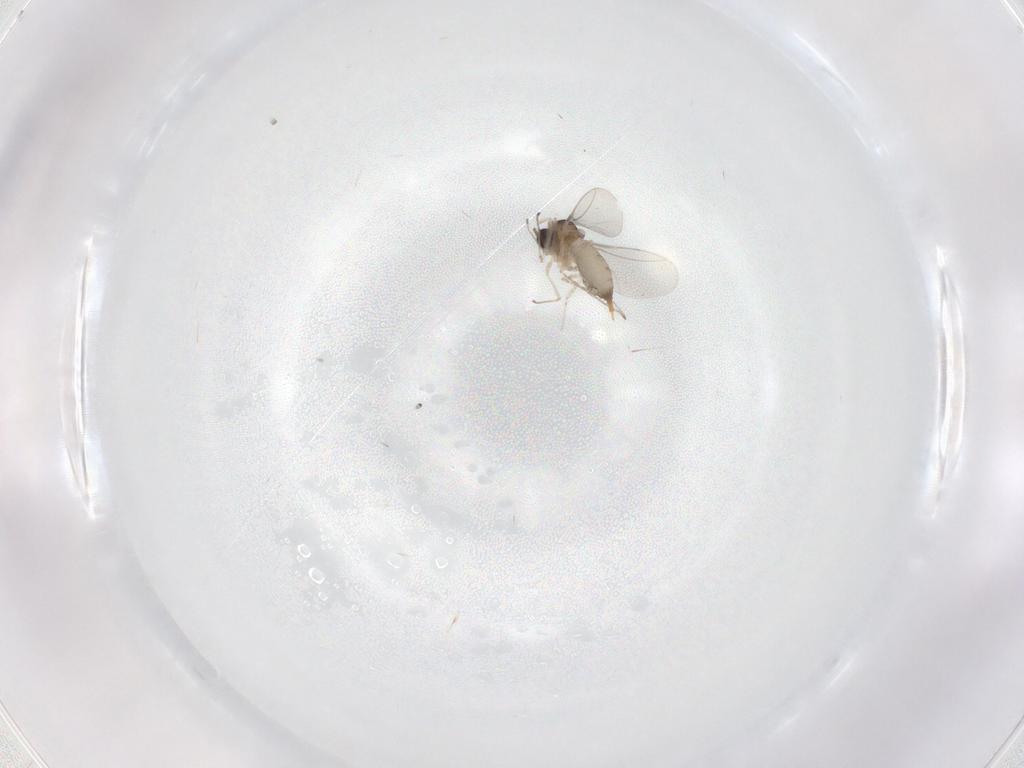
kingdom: Animalia
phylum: Arthropoda
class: Insecta
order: Diptera
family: Cecidomyiidae
